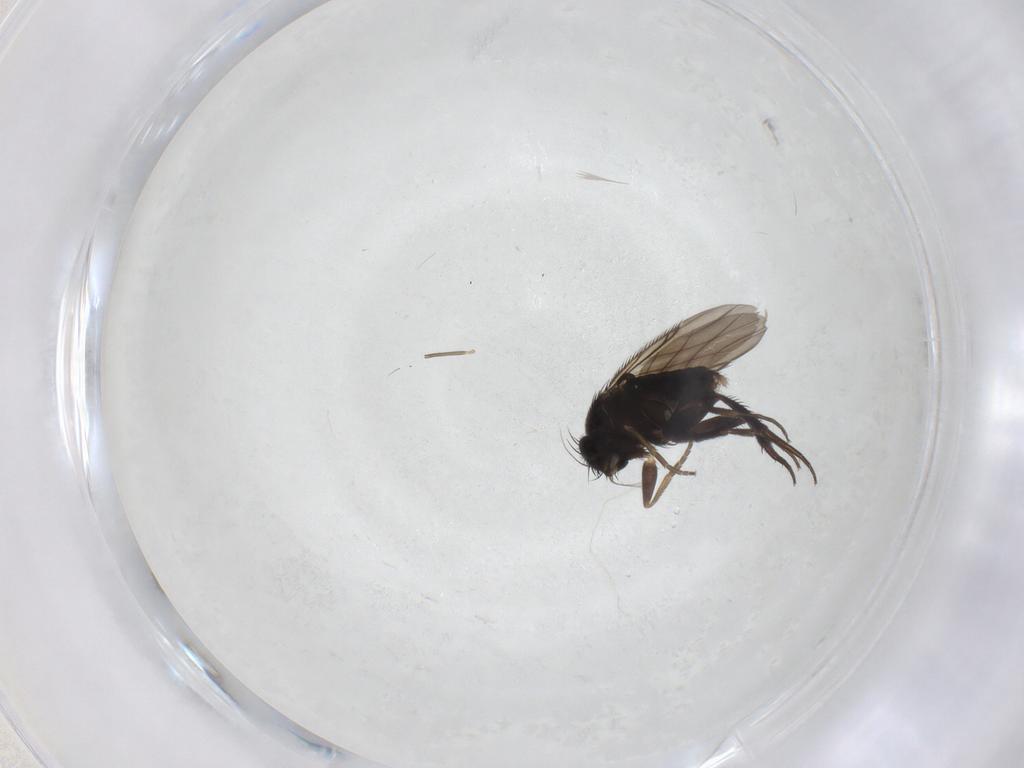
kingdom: Animalia
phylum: Arthropoda
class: Insecta
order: Diptera
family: Phoridae
